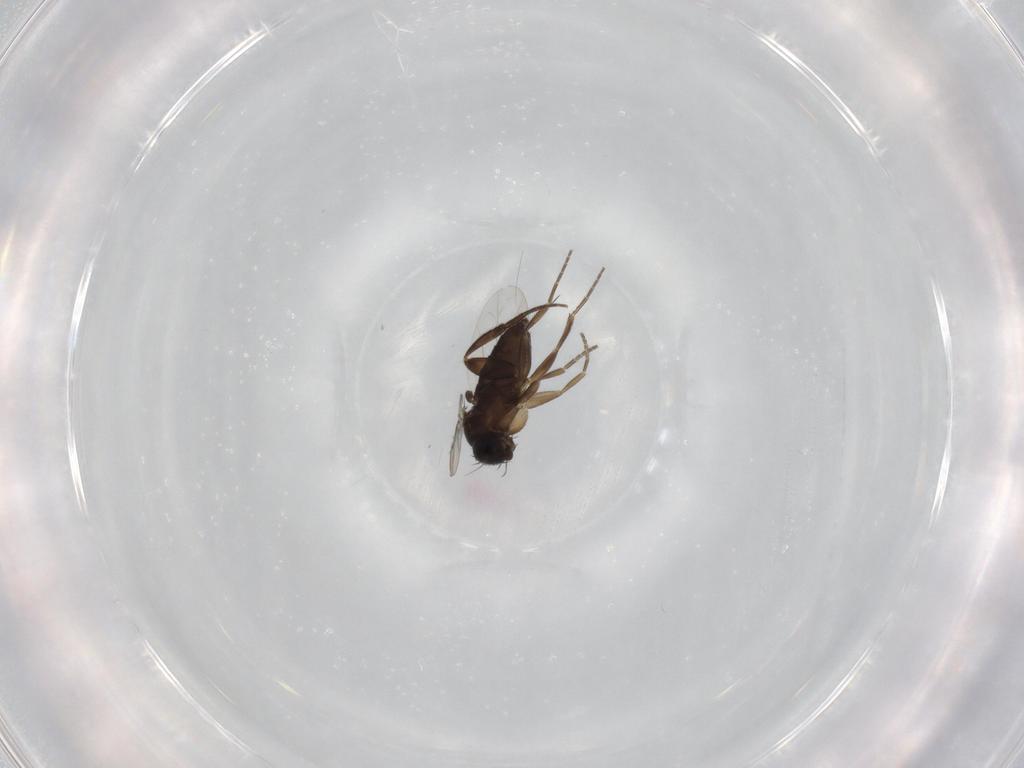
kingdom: Animalia
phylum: Arthropoda
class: Insecta
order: Diptera
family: Phoridae
